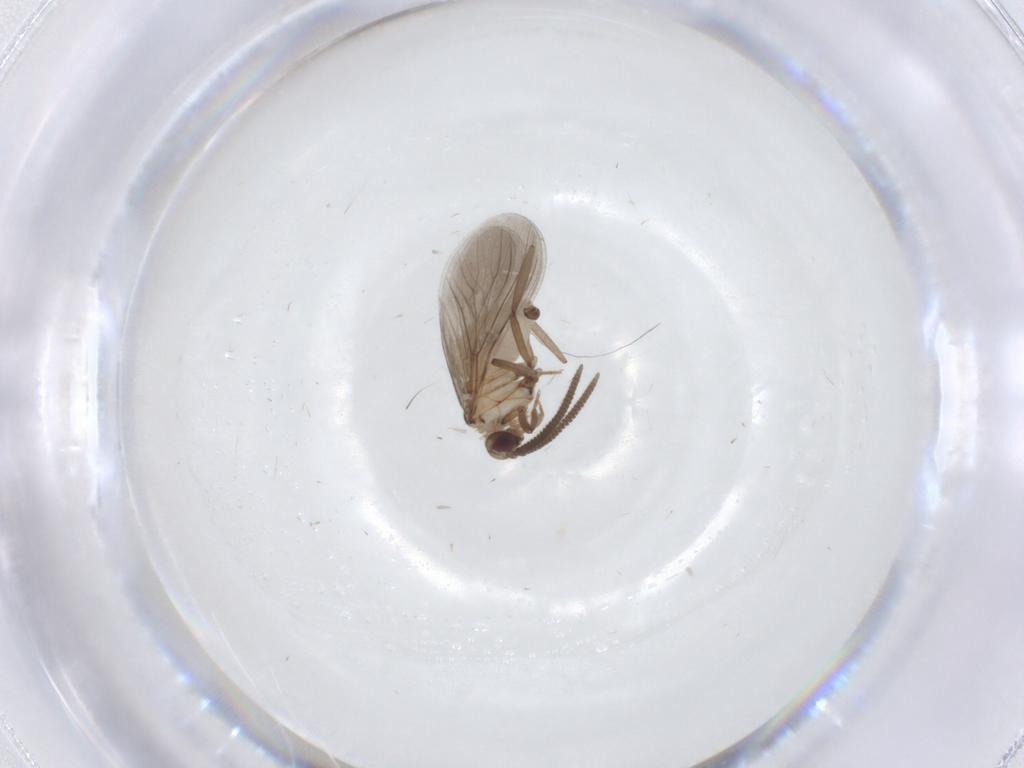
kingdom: Animalia
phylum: Arthropoda
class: Insecta
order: Neuroptera
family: Coniopterygidae
